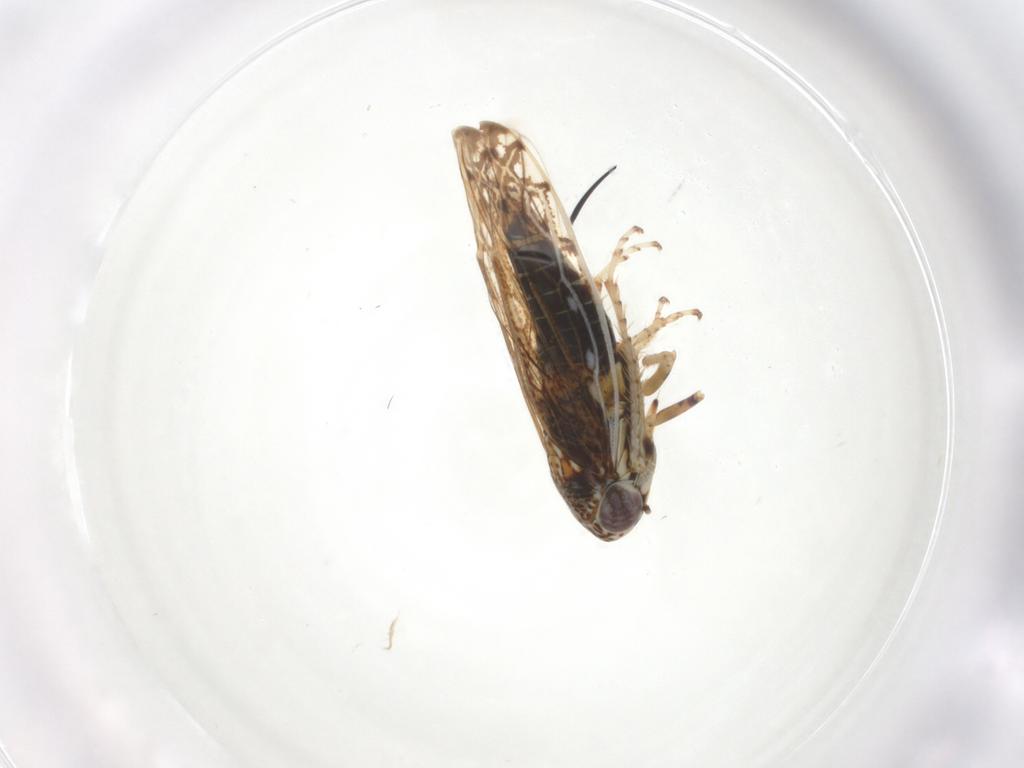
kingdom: Animalia
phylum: Arthropoda
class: Insecta
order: Hemiptera
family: Cicadellidae
